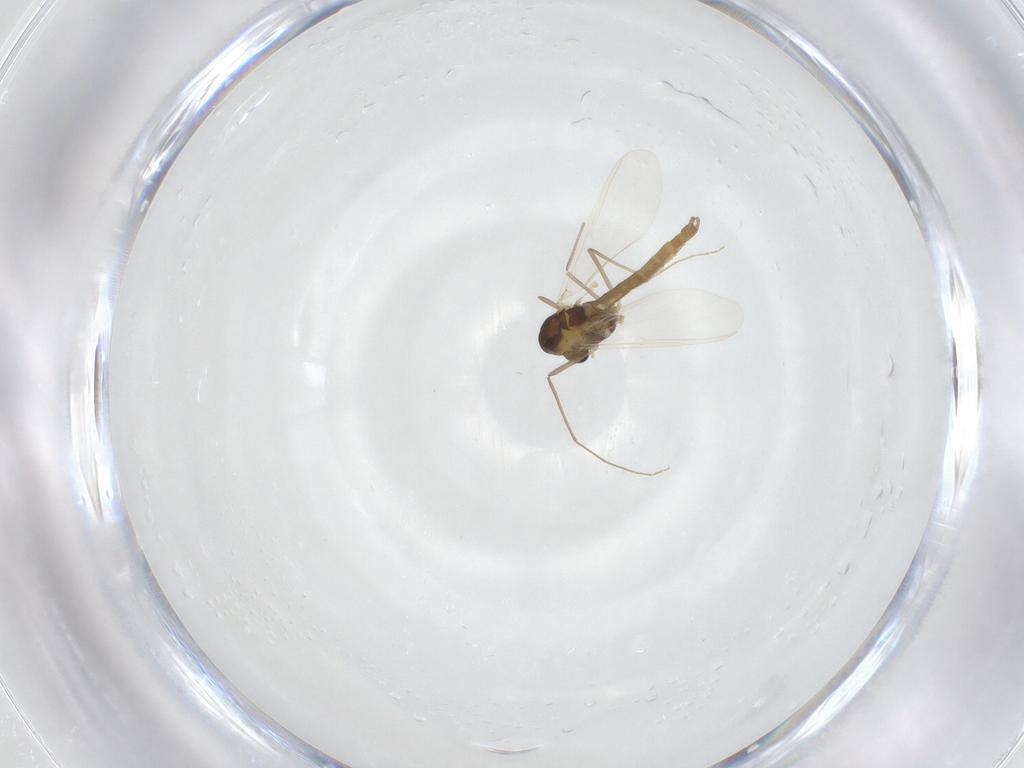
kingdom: Animalia
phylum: Arthropoda
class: Insecta
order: Diptera
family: Chironomidae
